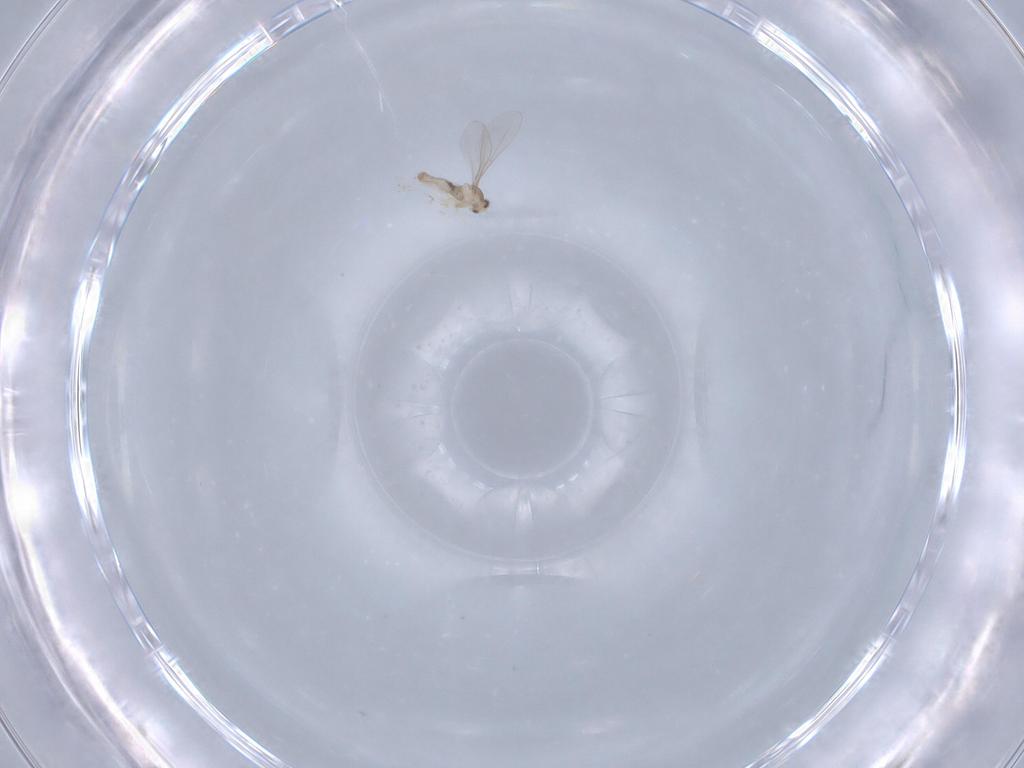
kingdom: Animalia
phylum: Arthropoda
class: Insecta
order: Diptera
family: Cecidomyiidae
